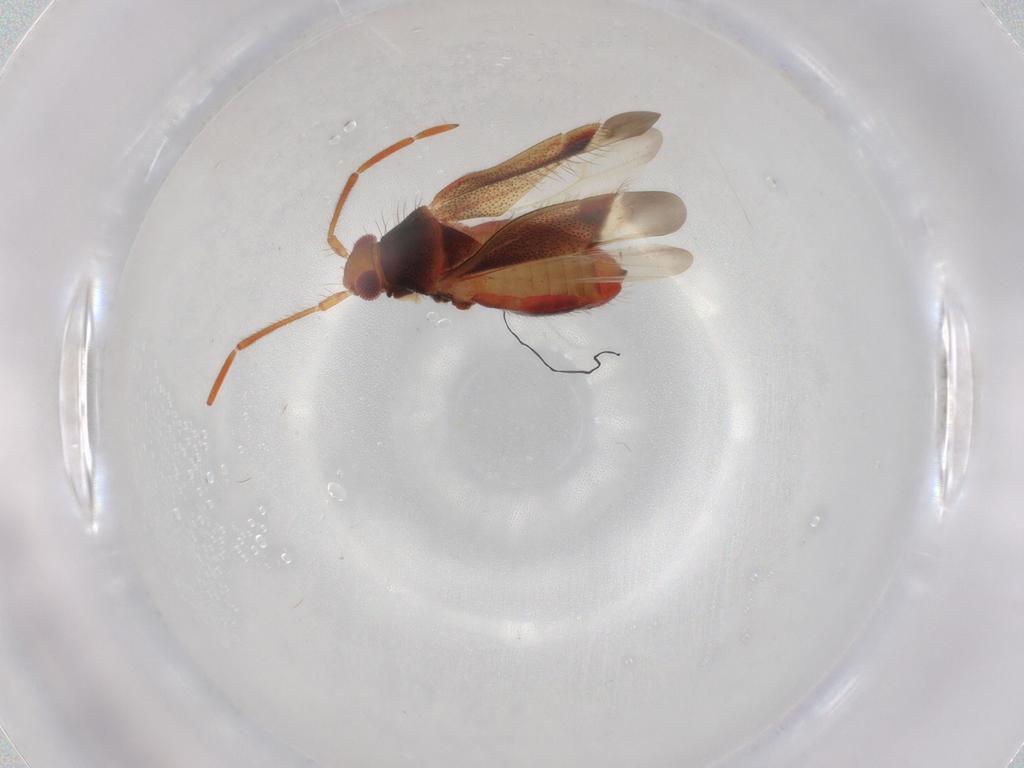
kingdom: Animalia
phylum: Arthropoda
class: Insecta
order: Hemiptera
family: Miridae
